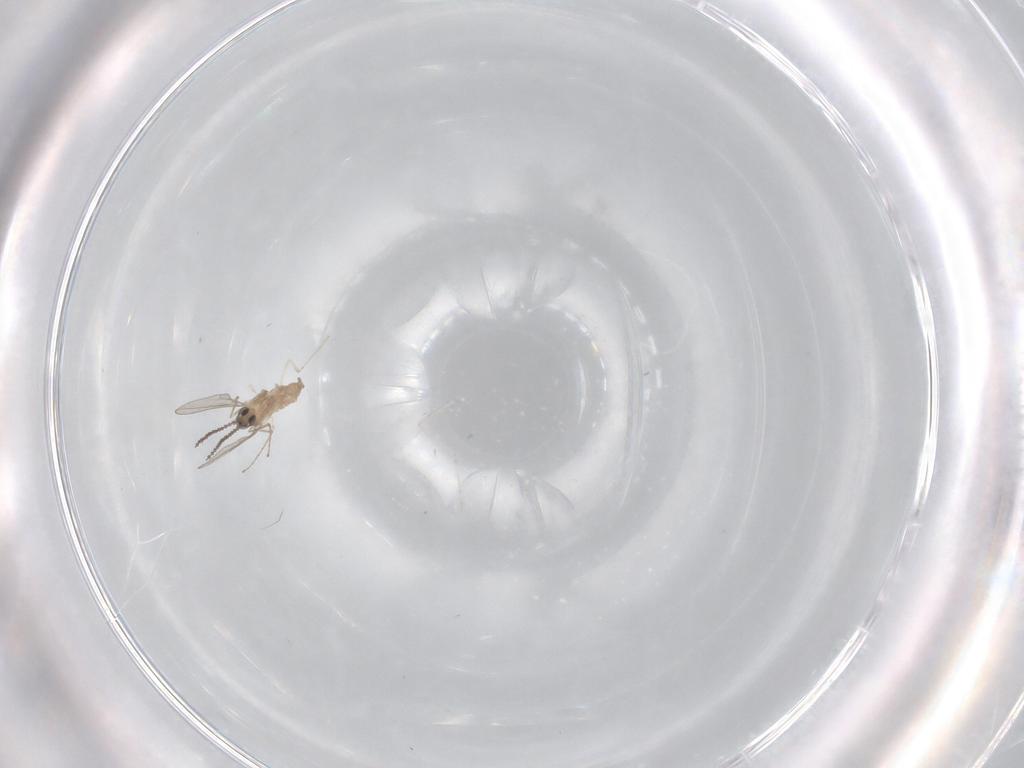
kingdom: Animalia
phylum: Arthropoda
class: Insecta
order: Diptera
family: Cecidomyiidae
